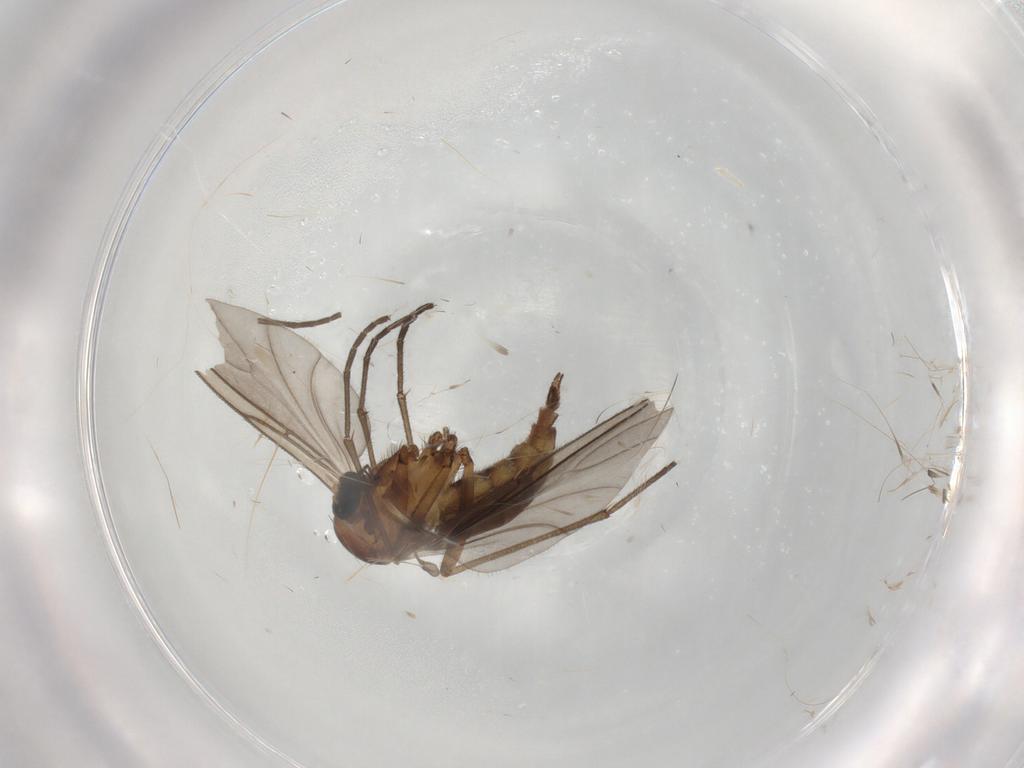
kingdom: Animalia
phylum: Arthropoda
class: Insecta
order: Diptera
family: Sciaridae
